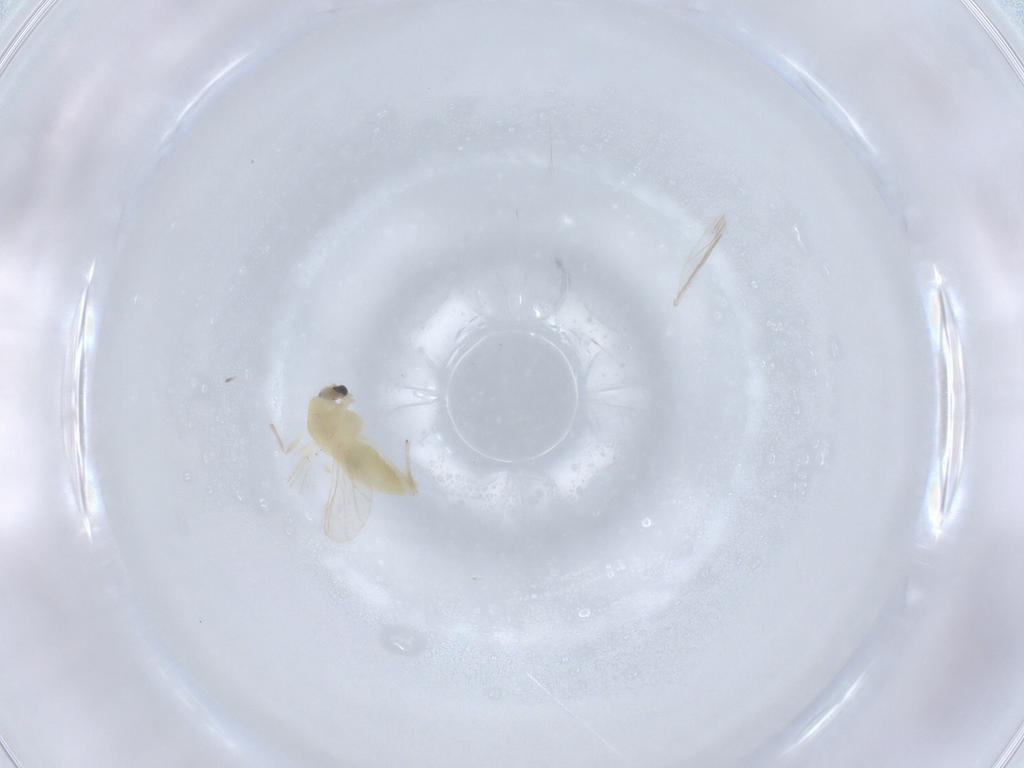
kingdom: Animalia
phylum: Arthropoda
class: Insecta
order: Diptera
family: Chironomidae
